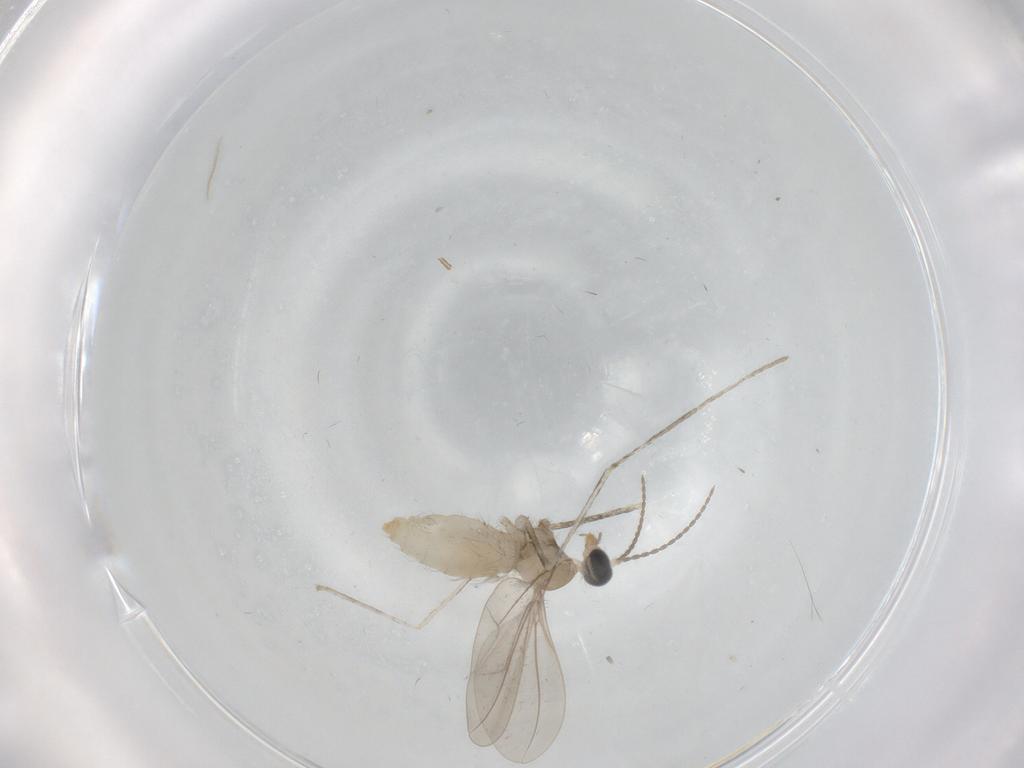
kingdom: Animalia
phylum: Arthropoda
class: Insecta
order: Diptera
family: Cecidomyiidae
